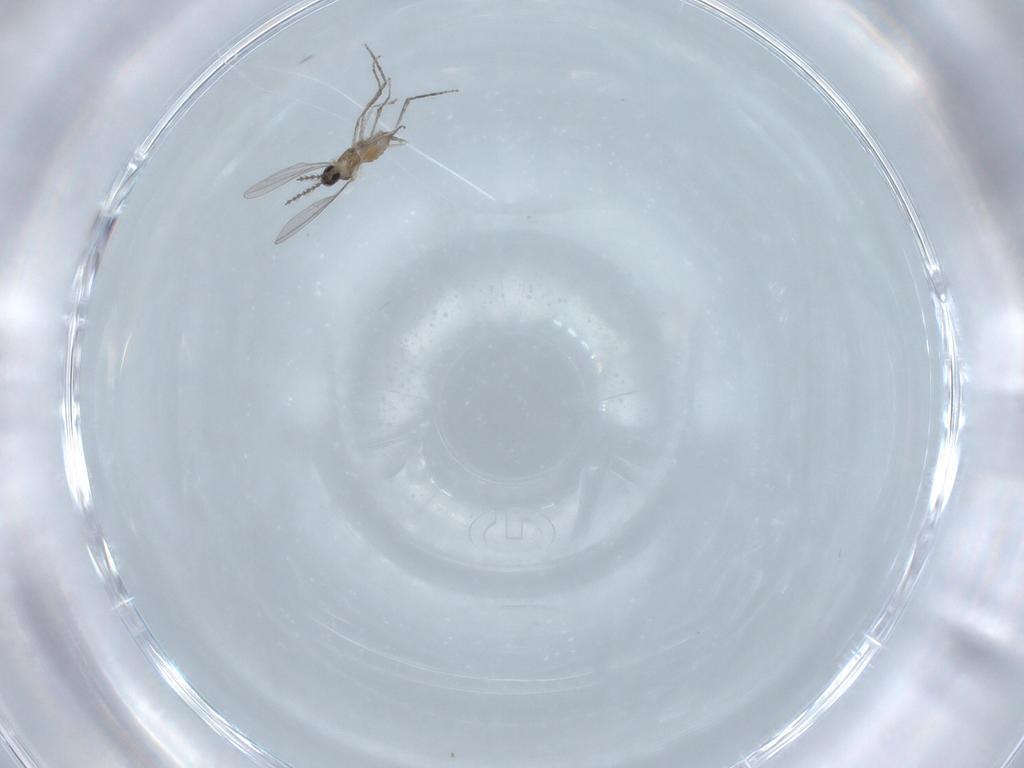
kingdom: Animalia
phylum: Arthropoda
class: Insecta
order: Diptera
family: Cecidomyiidae
